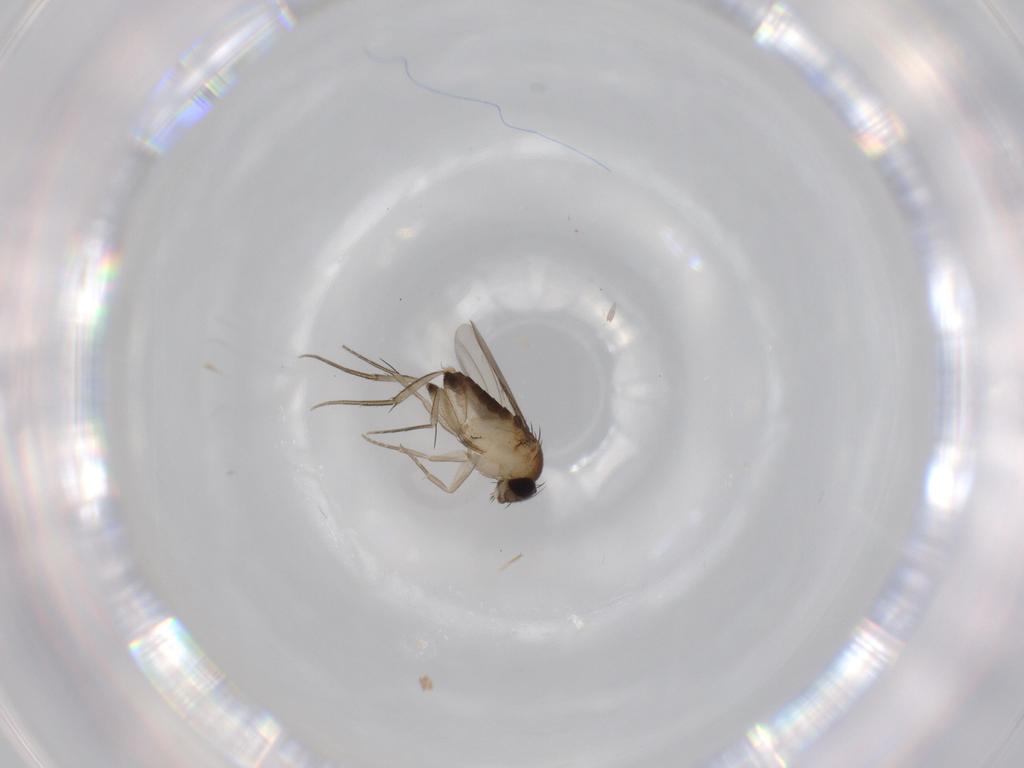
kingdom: Animalia
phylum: Arthropoda
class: Insecta
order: Diptera
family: Phoridae
